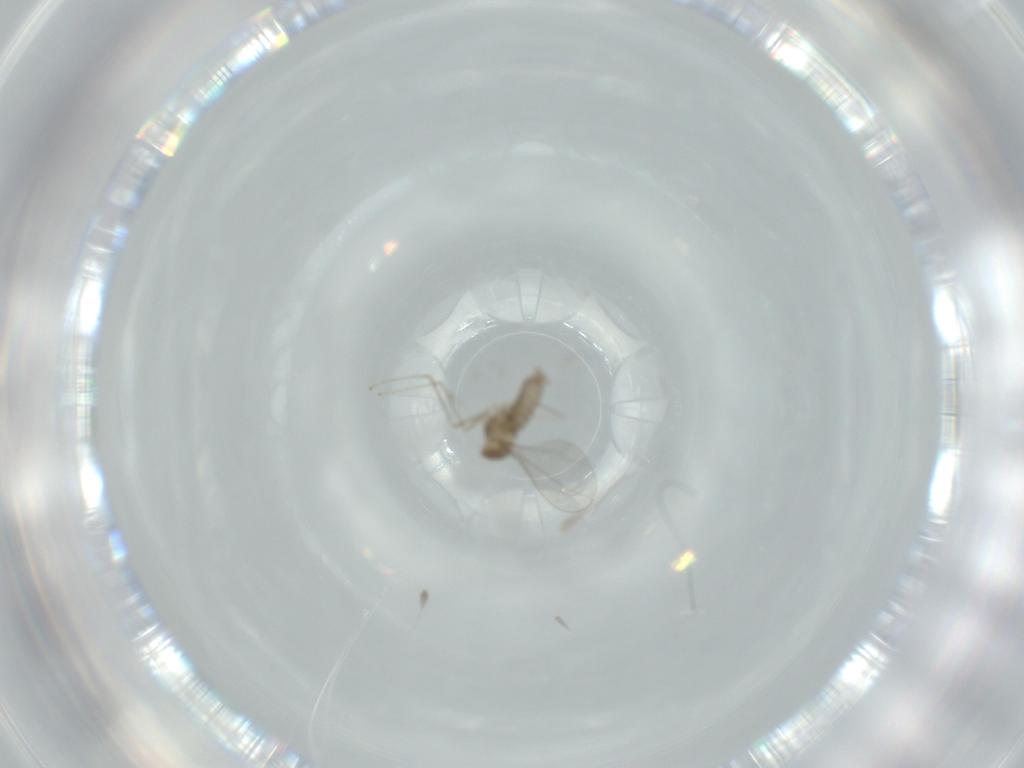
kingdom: Animalia
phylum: Arthropoda
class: Insecta
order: Diptera
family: Cecidomyiidae
